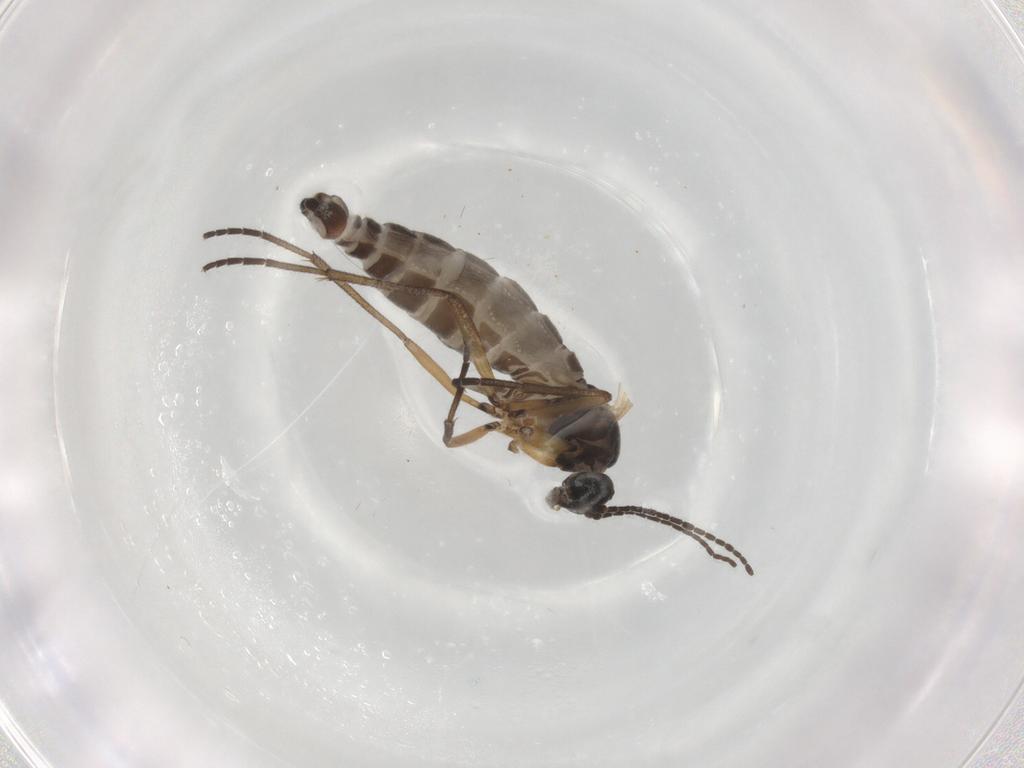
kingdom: Animalia
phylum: Arthropoda
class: Insecta
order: Diptera
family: Sciaridae
